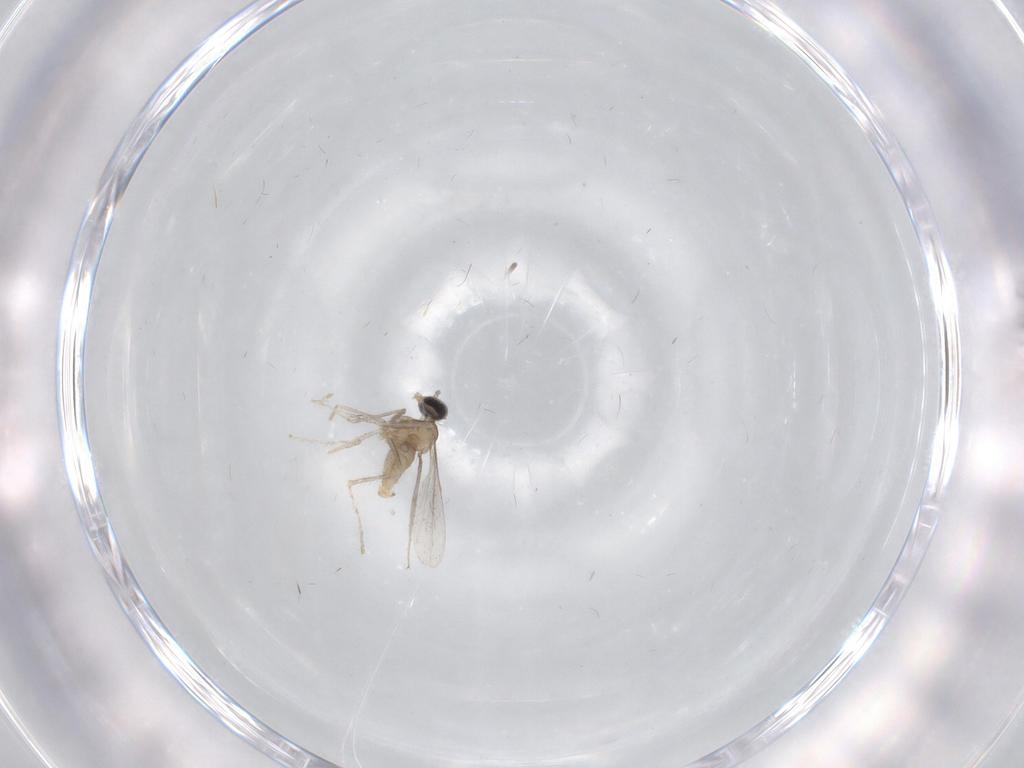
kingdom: Animalia
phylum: Arthropoda
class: Insecta
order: Diptera
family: Cecidomyiidae
